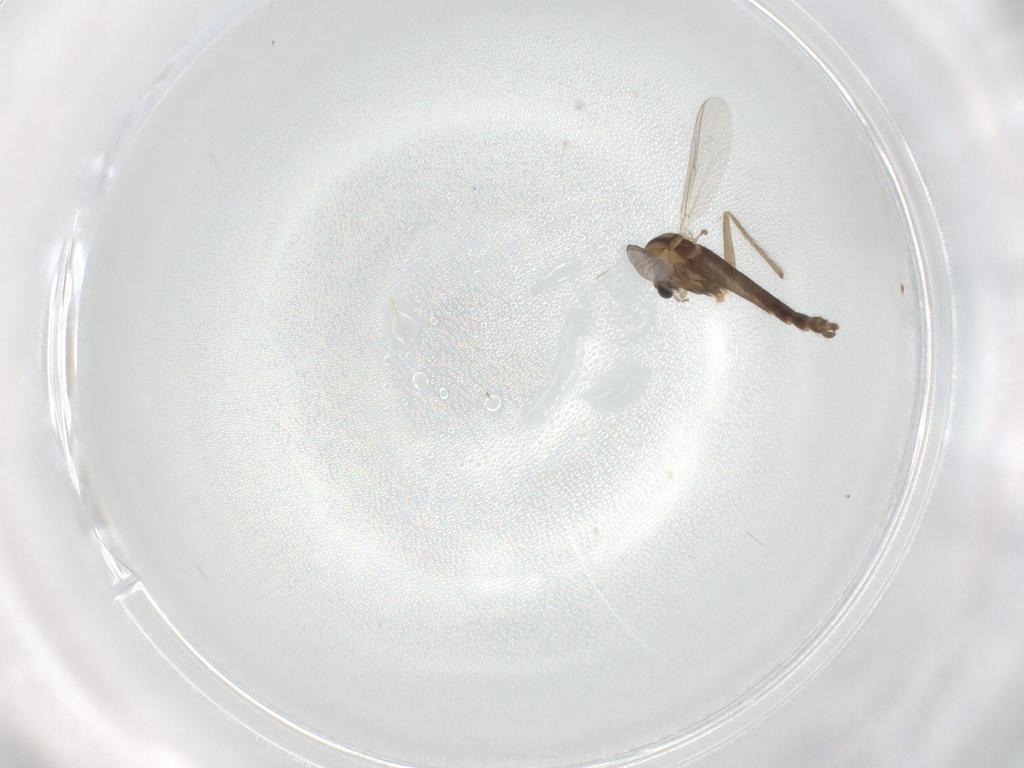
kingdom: Animalia
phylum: Arthropoda
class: Insecta
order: Diptera
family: Chironomidae
